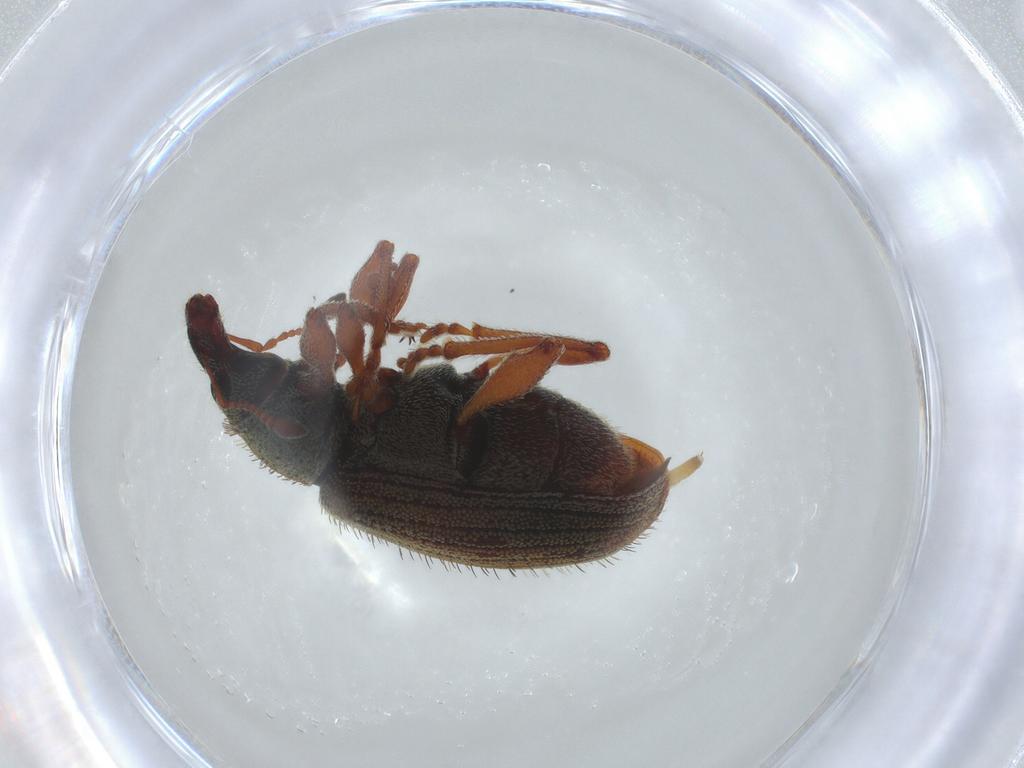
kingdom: Animalia
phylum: Arthropoda
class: Insecta
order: Coleoptera
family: Curculionidae
